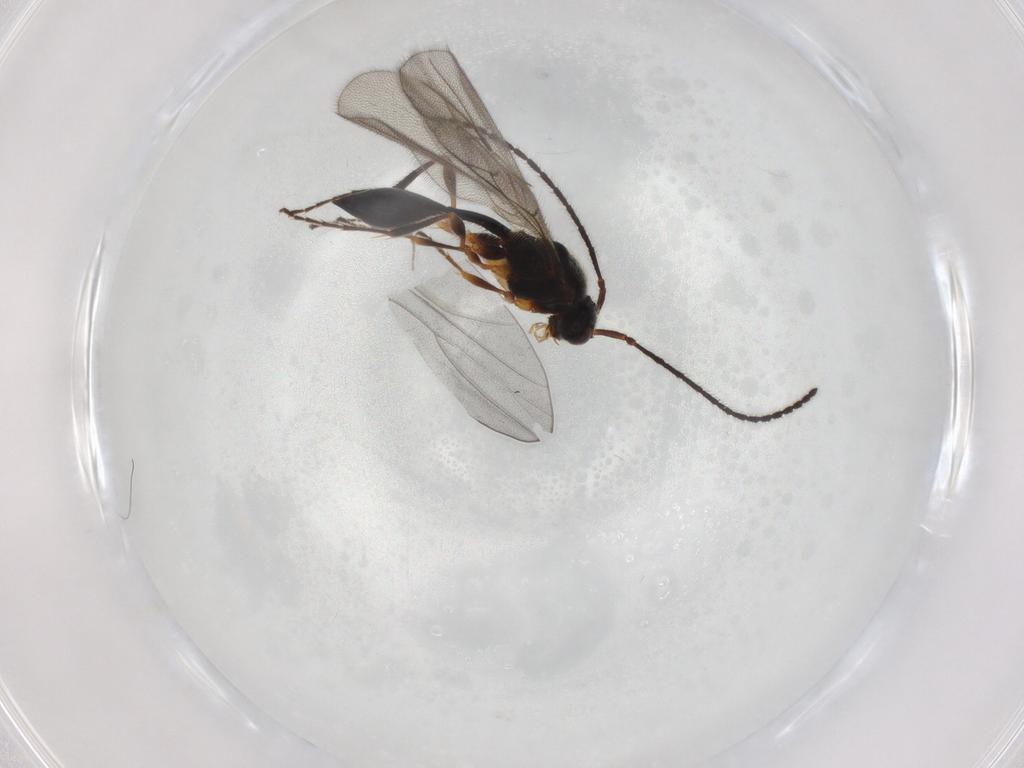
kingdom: Animalia
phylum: Arthropoda
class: Insecta
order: Hymenoptera
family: Diapriidae
